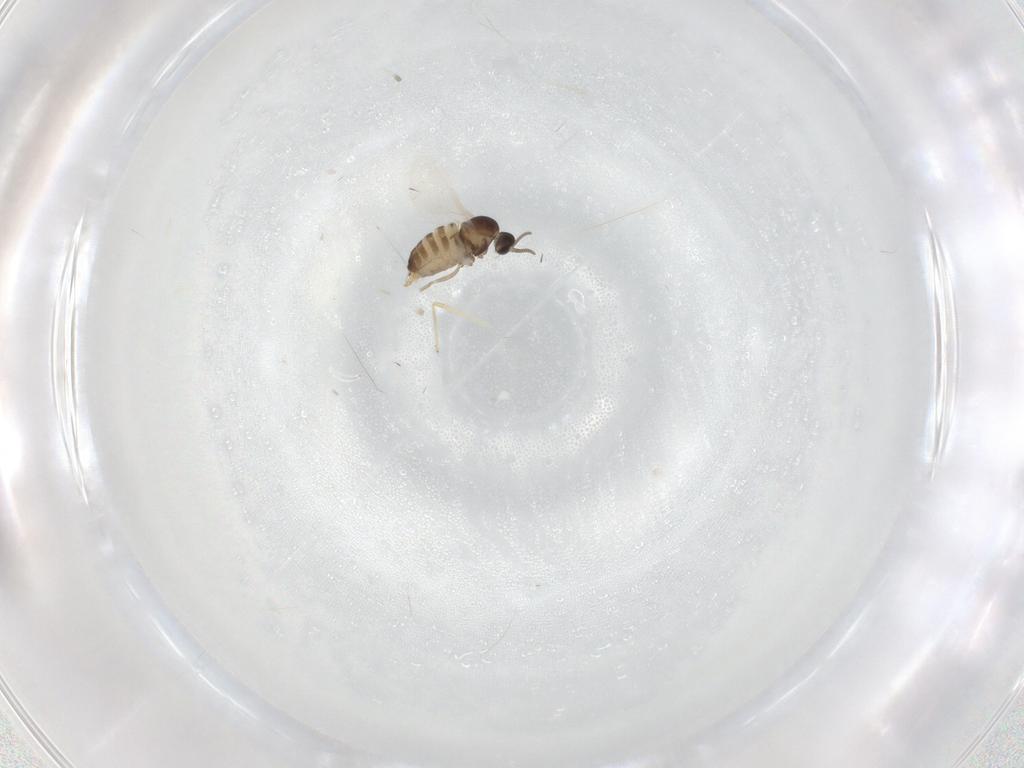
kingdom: Animalia
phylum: Arthropoda
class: Insecta
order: Diptera
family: Cecidomyiidae
